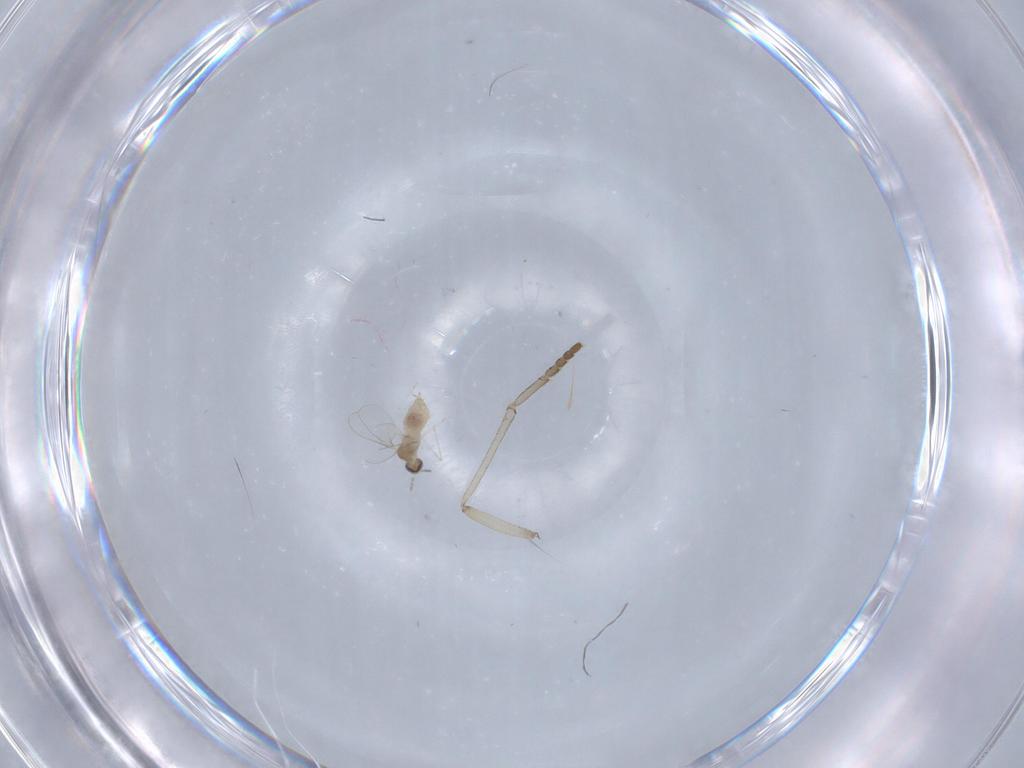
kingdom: Animalia
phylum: Arthropoda
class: Insecta
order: Diptera
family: Cecidomyiidae
